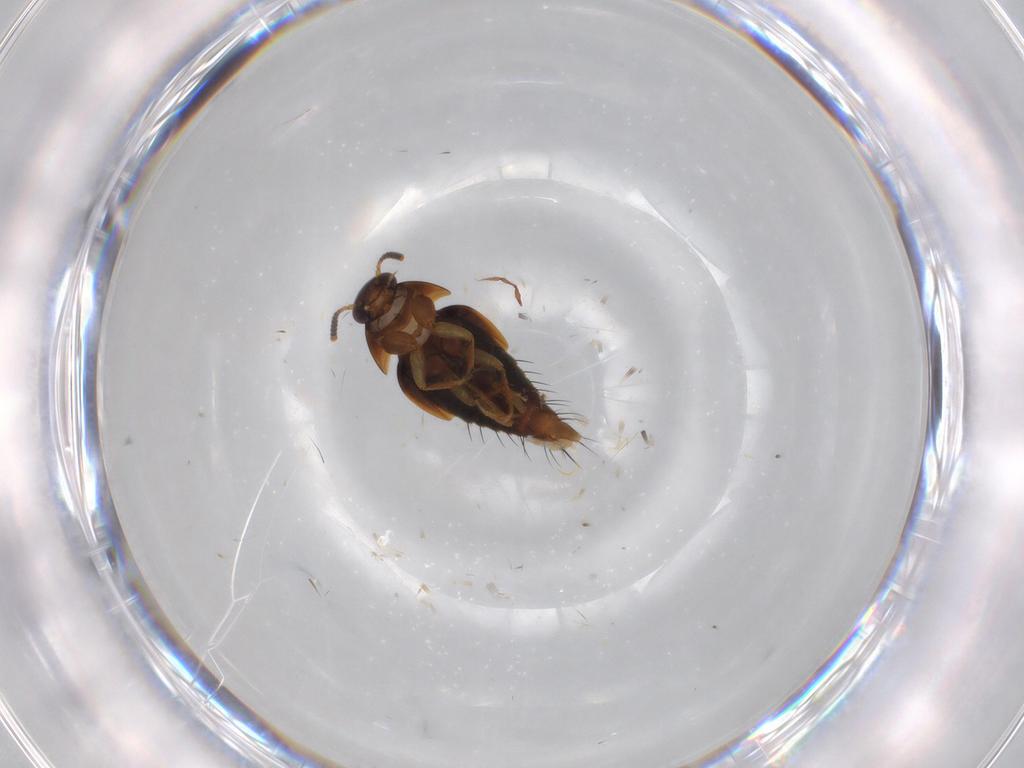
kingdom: Animalia
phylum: Arthropoda
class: Insecta
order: Coleoptera
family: Staphylinidae
